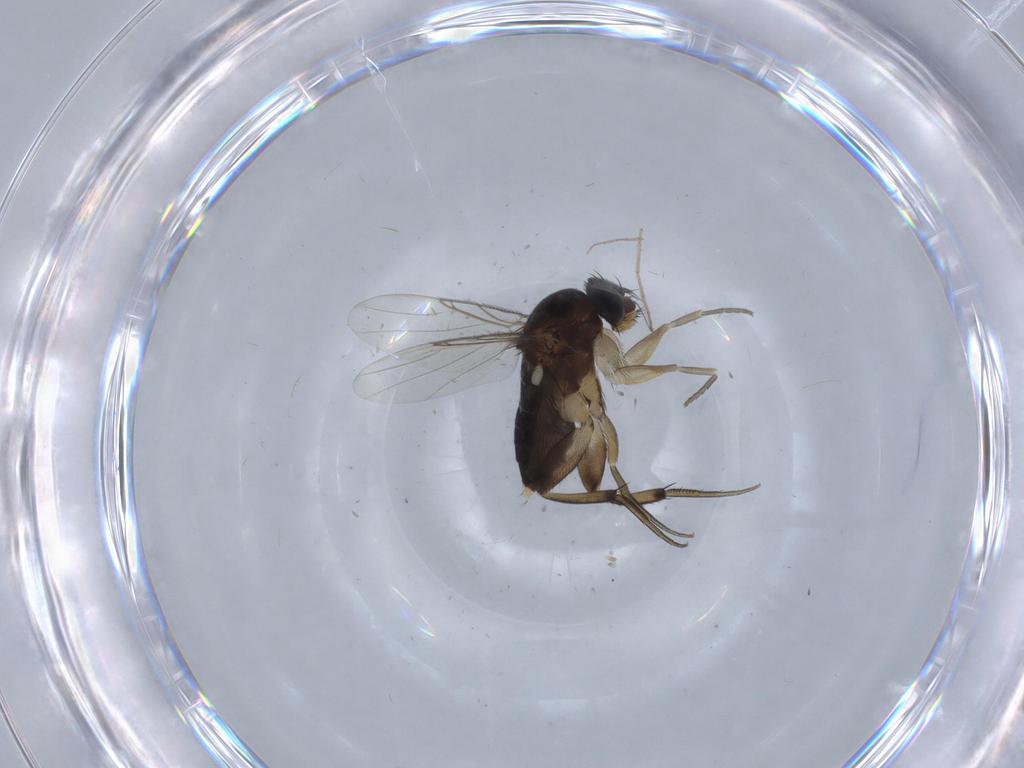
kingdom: Animalia
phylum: Arthropoda
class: Insecta
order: Diptera
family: Phoridae
